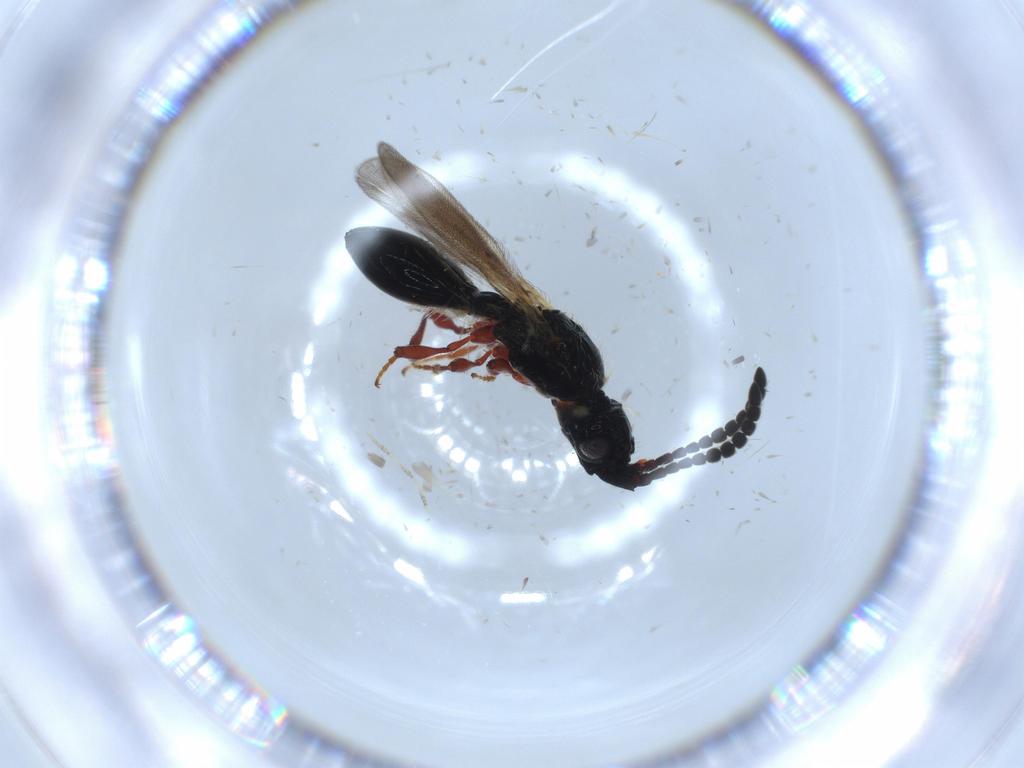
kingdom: Animalia
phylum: Arthropoda
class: Insecta
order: Hymenoptera
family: Diapriidae
